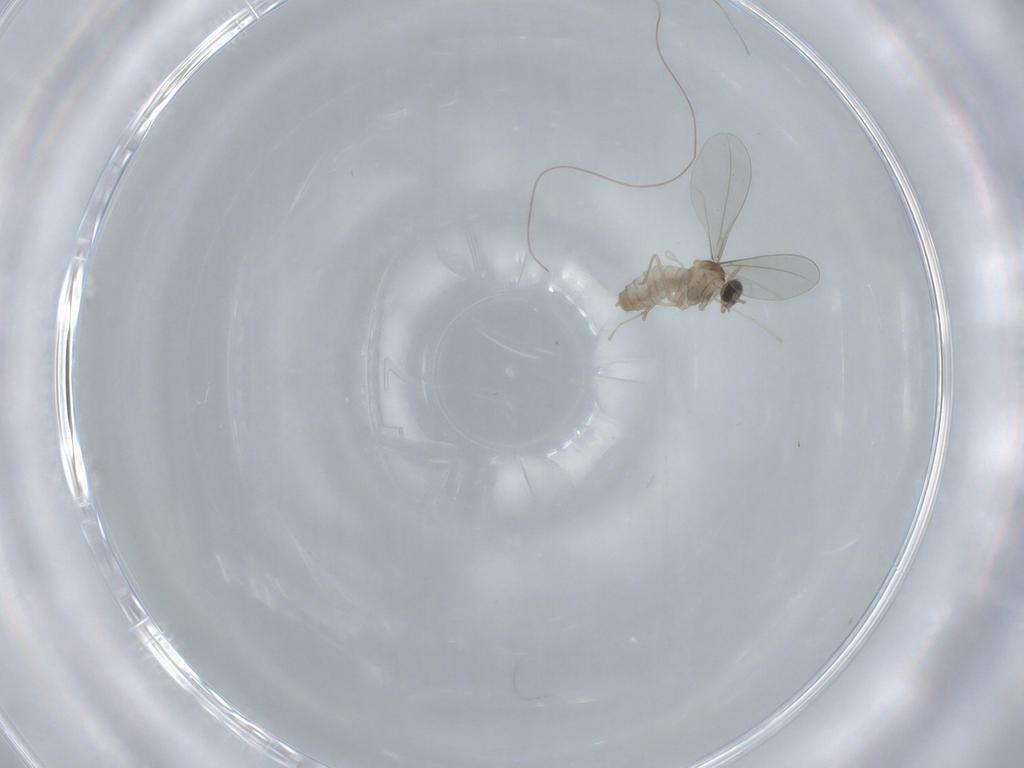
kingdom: Animalia
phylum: Arthropoda
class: Insecta
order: Diptera
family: Cecidomyiidae
